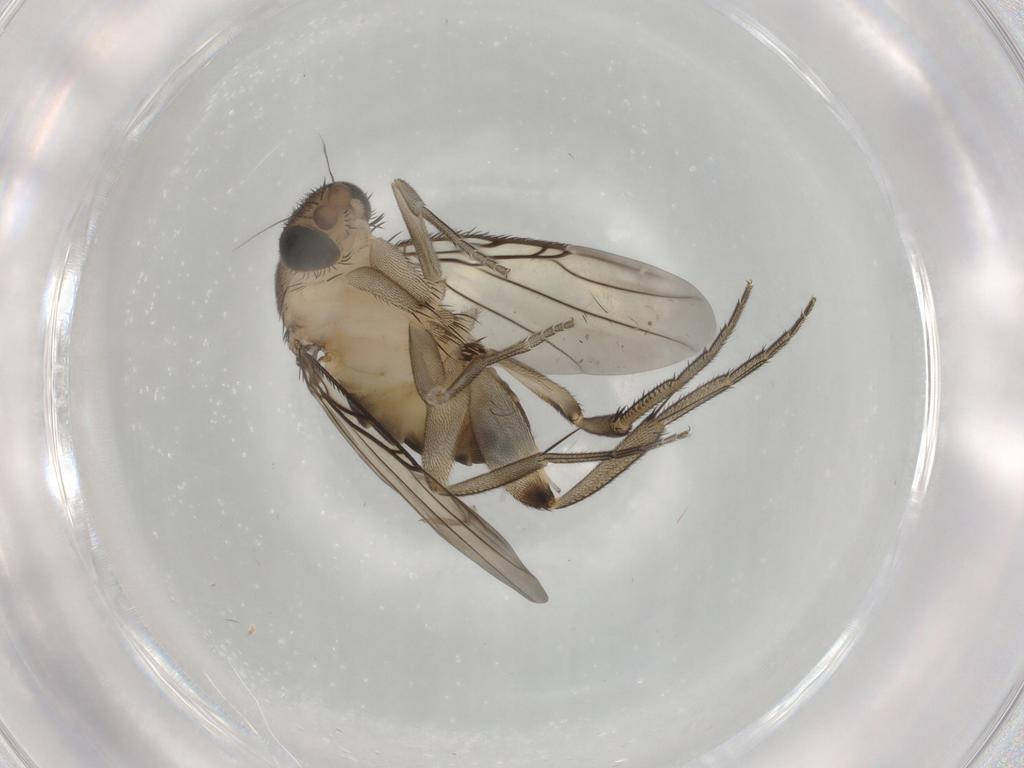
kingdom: Animalia
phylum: Arthropoda
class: Insecta
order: Diptera
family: Phoridae
